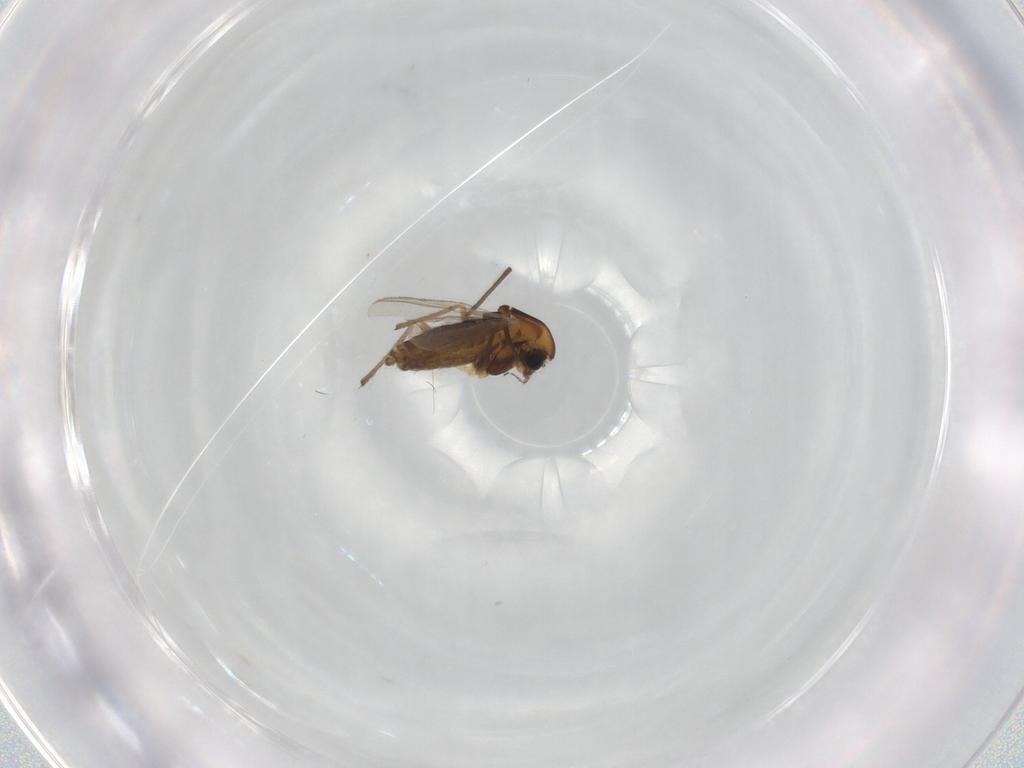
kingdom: Animalia
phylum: Arthropoda
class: Insecta
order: Diptera
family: Chironomidae
